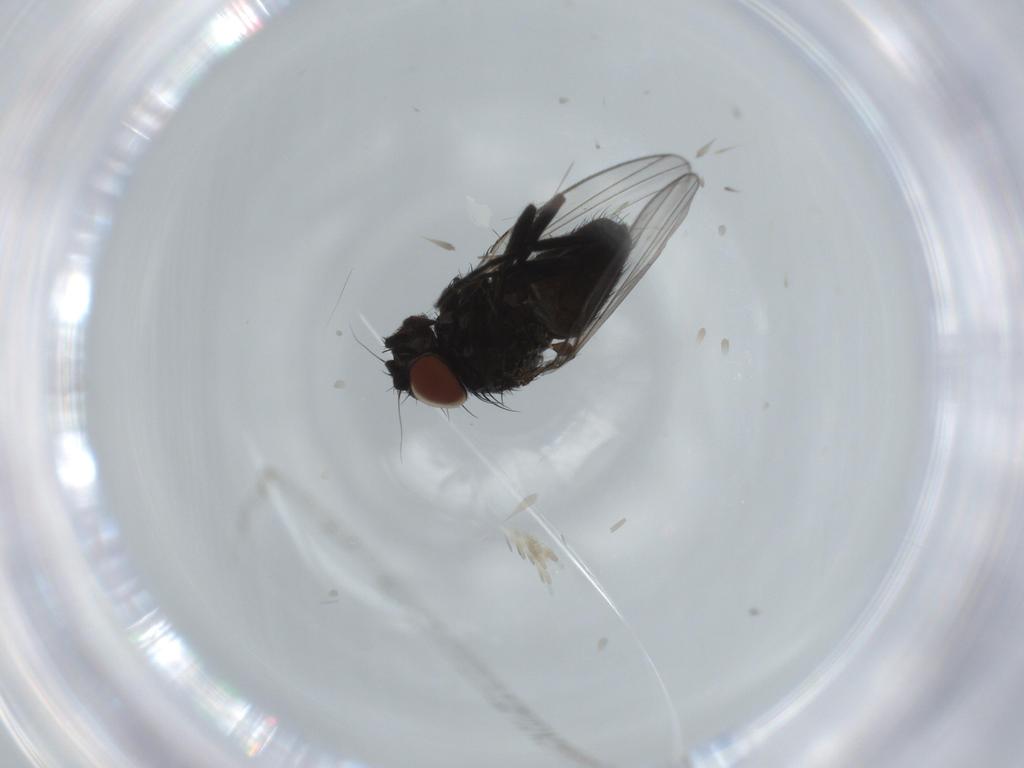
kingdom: Animalia
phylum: Arthropoda
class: Insecta
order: Diptera
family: Milichiidae
